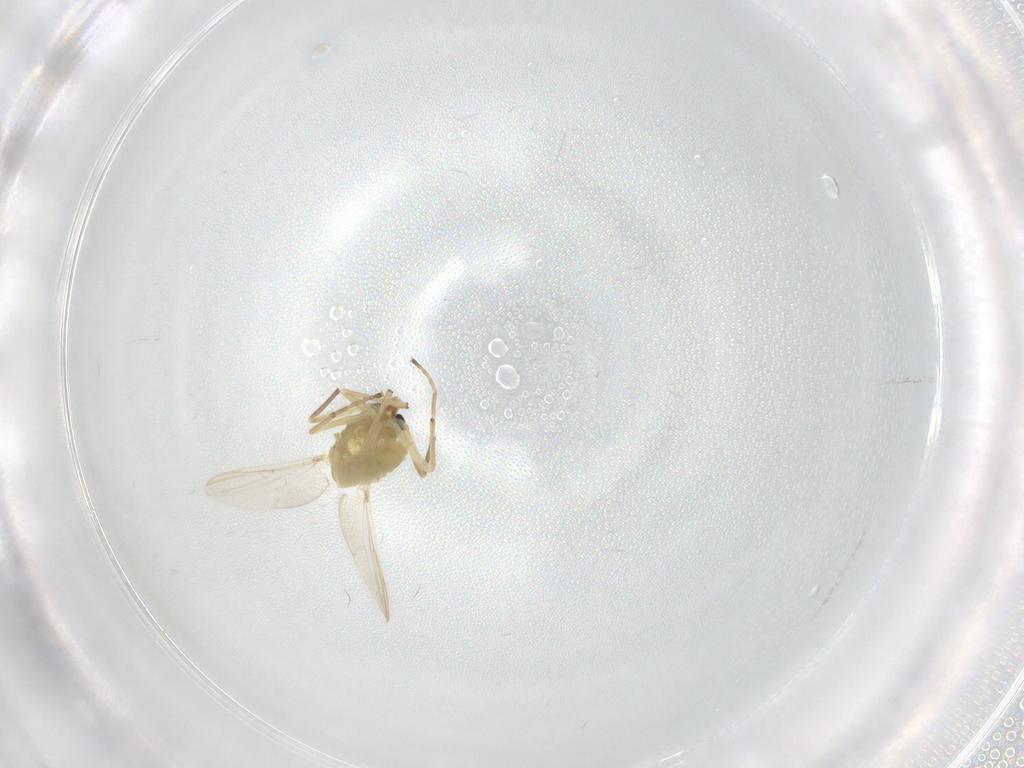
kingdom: Animalia
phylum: Arthropoda
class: Insecta
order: Diptera
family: Chironomidae
